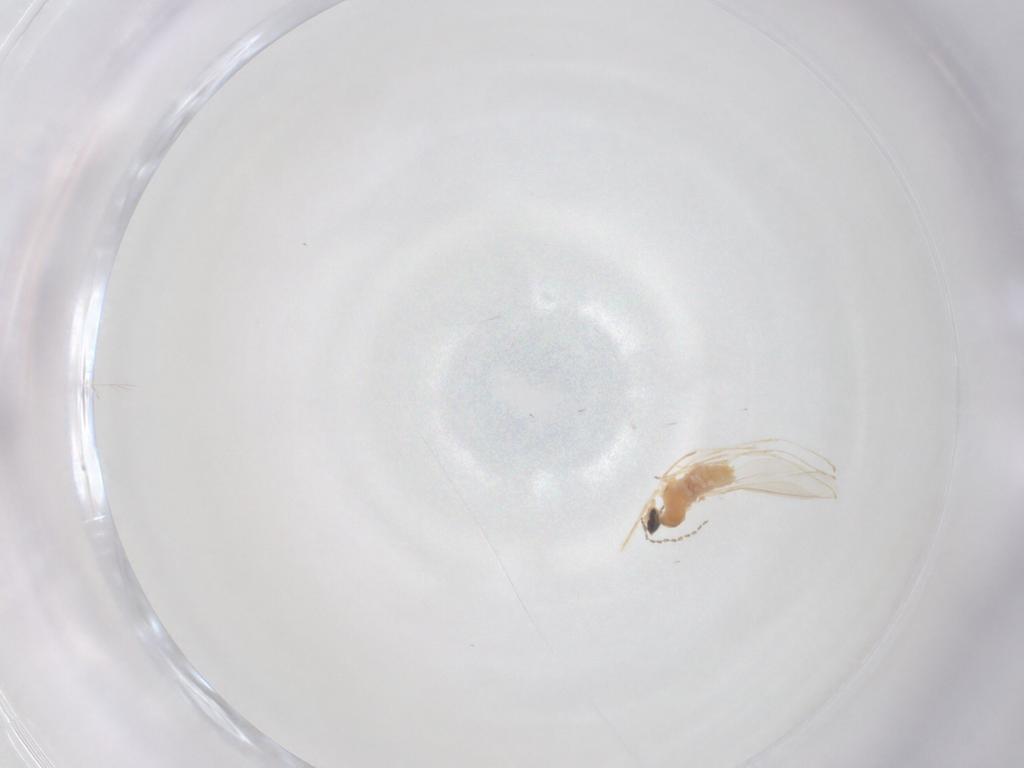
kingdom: Animalia
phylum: Arthropoda
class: Insecta
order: Diptera
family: Cecidomyiidae
